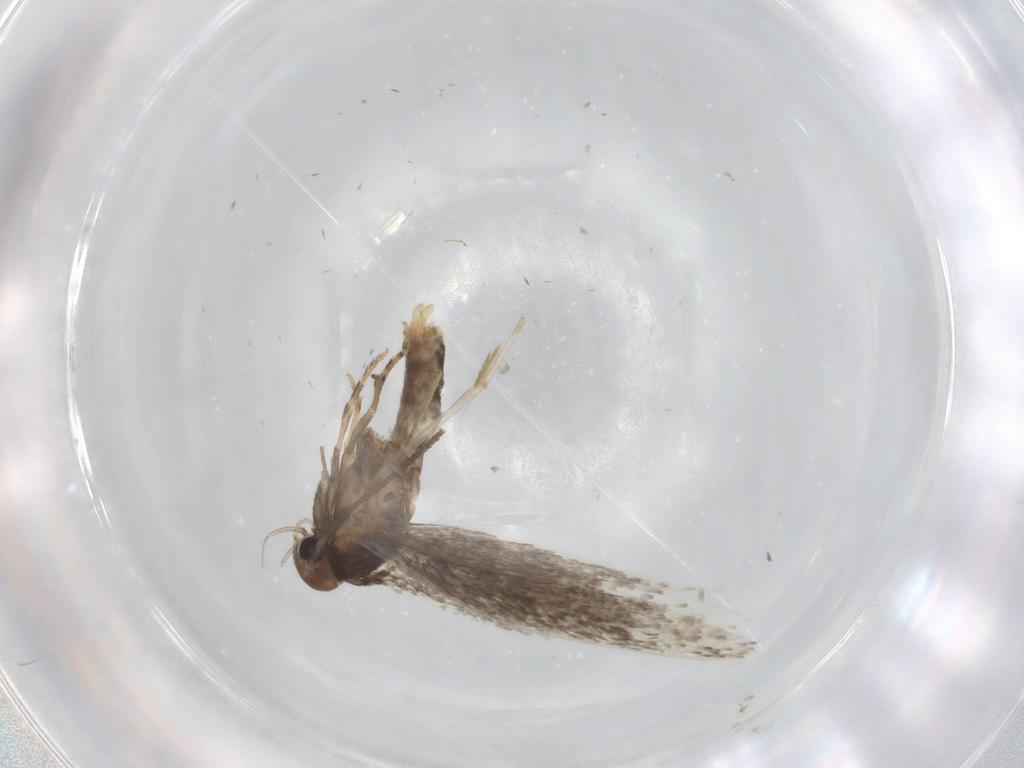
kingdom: Animalia
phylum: Arthropoda
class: Insecta
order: Lepidoptera
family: Elachistidae
